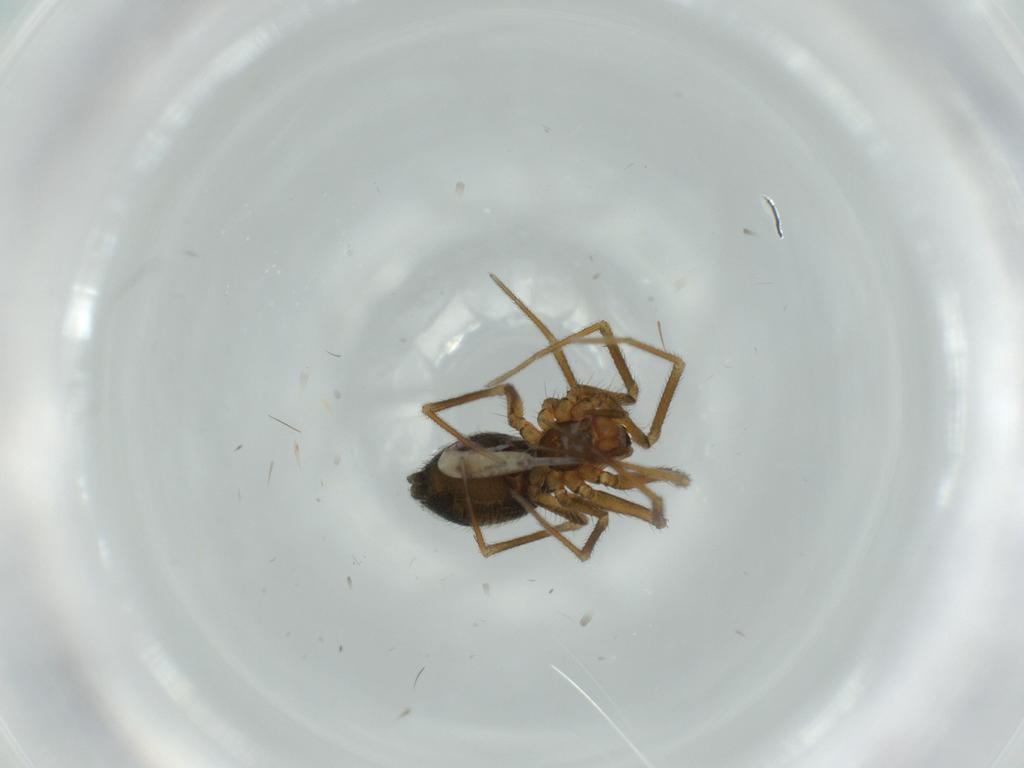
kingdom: Animalia
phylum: Arthropoda
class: Arachnida
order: Araneae
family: Linyphiidae
